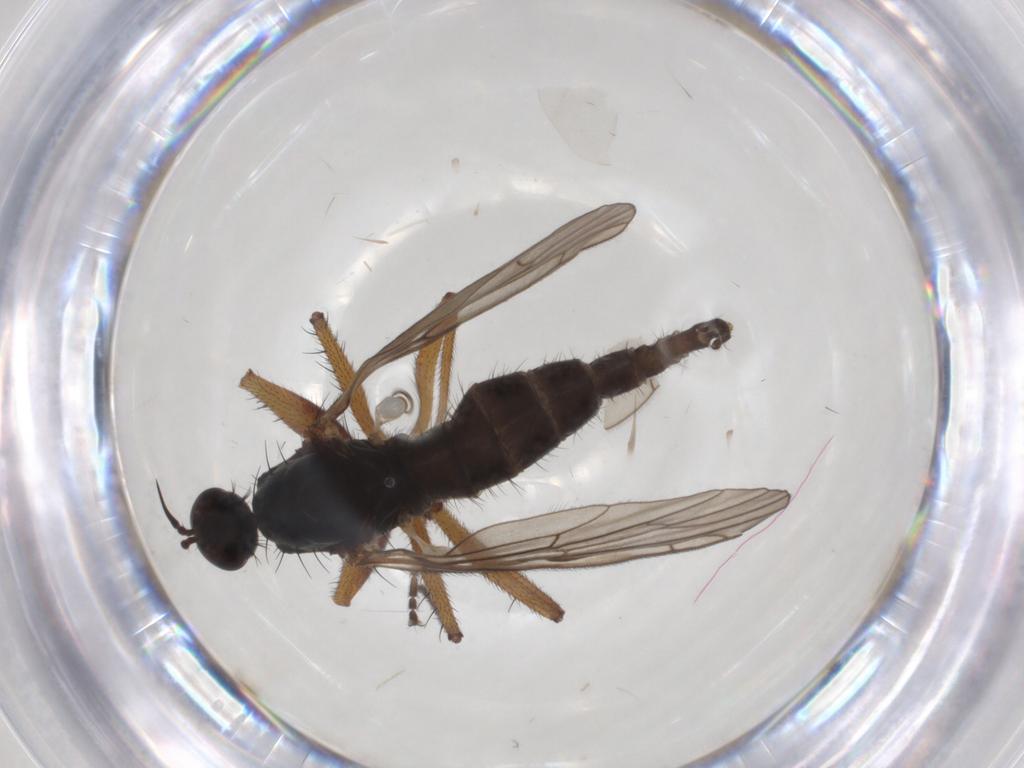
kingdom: Animalia
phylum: Arthropoda
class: Insecta
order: Diptera
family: Empididae
